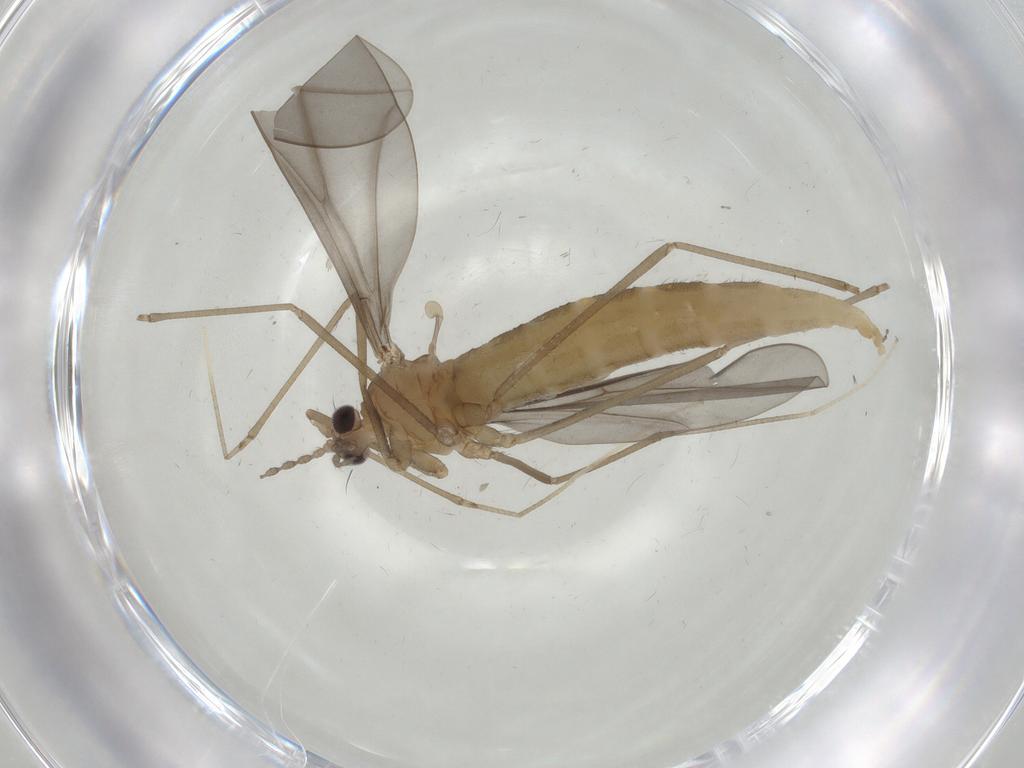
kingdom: Animalia
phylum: Arthropoda
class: Insecta
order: Diptera
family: Cecidomyiidae
